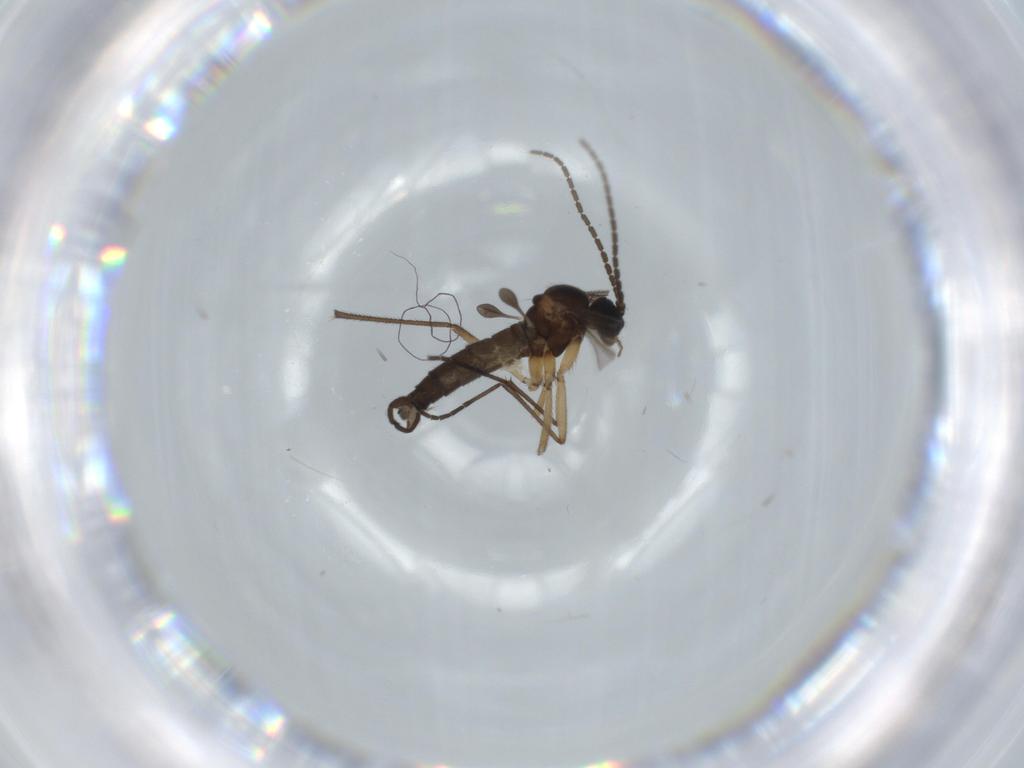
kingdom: Animalia
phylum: Arthropoda
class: Insecta
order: Diptera
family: Sciaridae
